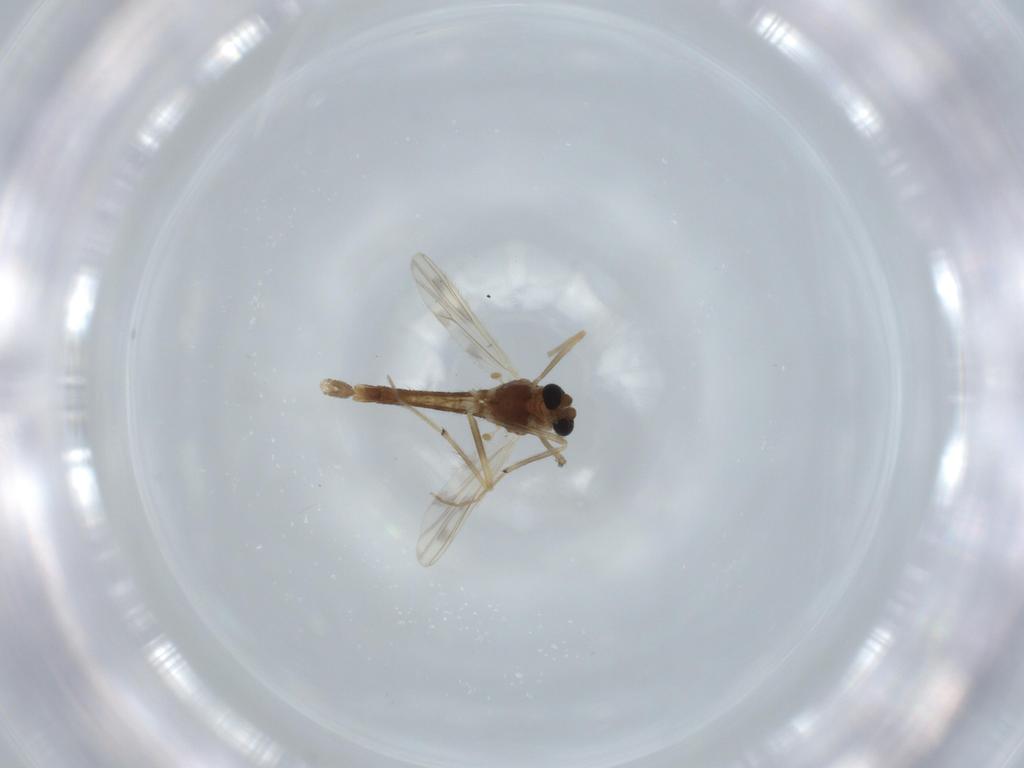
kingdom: Animalia
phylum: Arthropoda
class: Insecta
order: Diptera
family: Chironomidae
